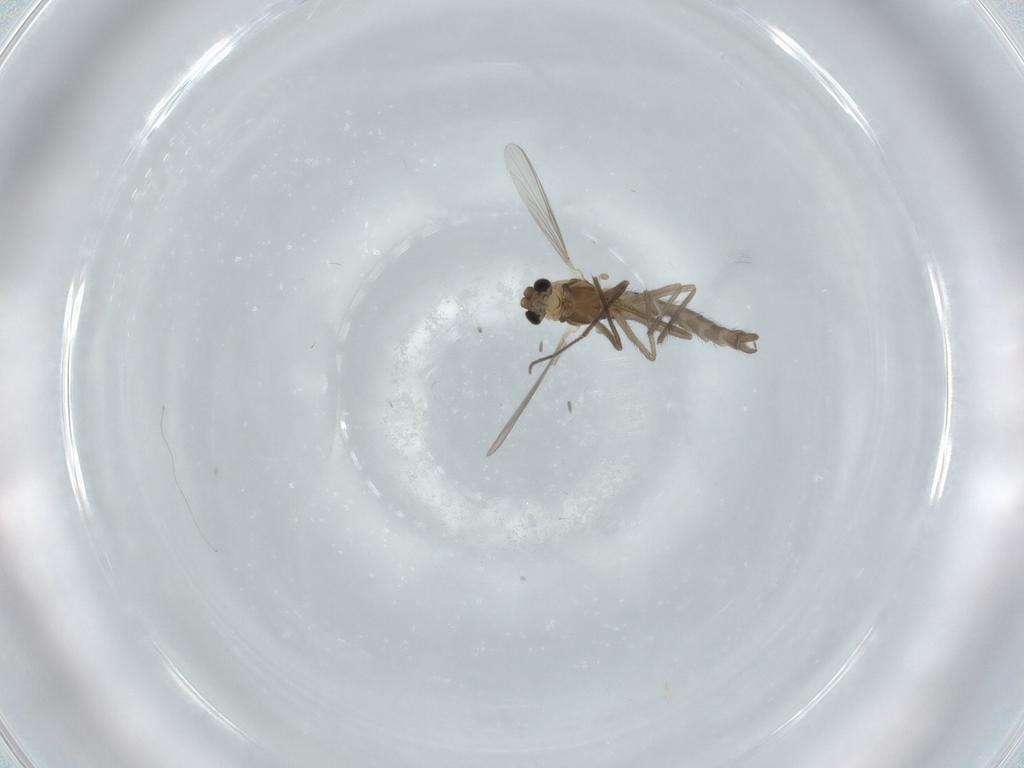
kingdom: Animalia
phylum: Arthropoda
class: Insecta
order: Diptera
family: Chironomidae
